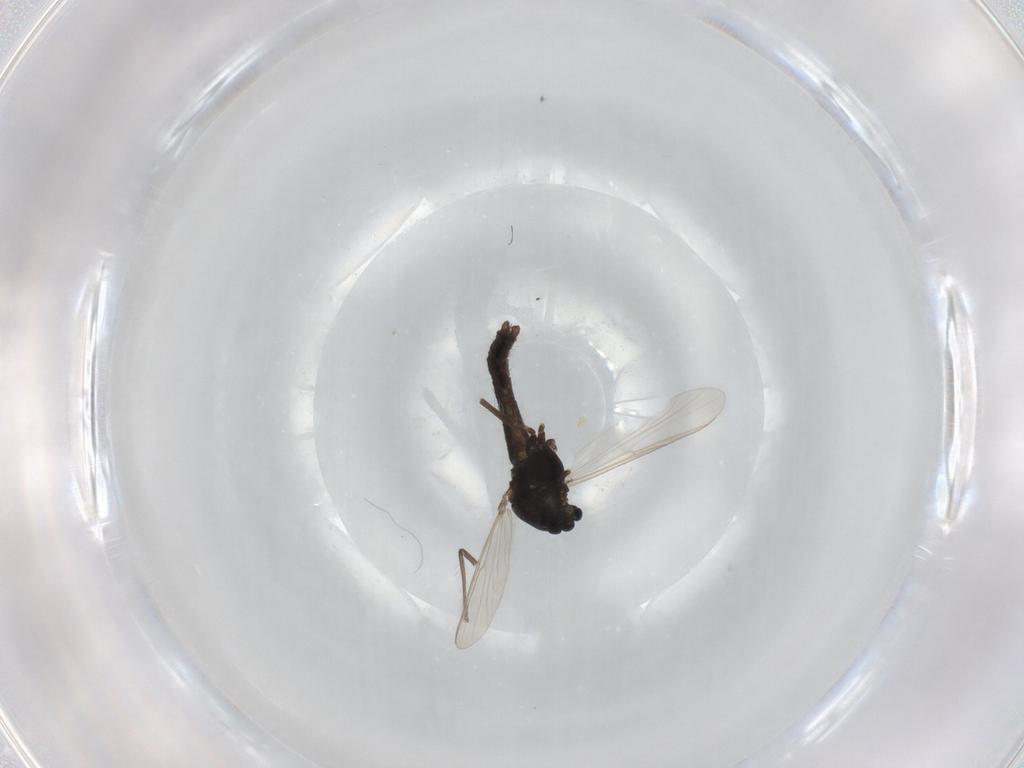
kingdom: Animalia
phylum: Arthropoda
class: Insecta
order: Diptera
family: Chironomidae
